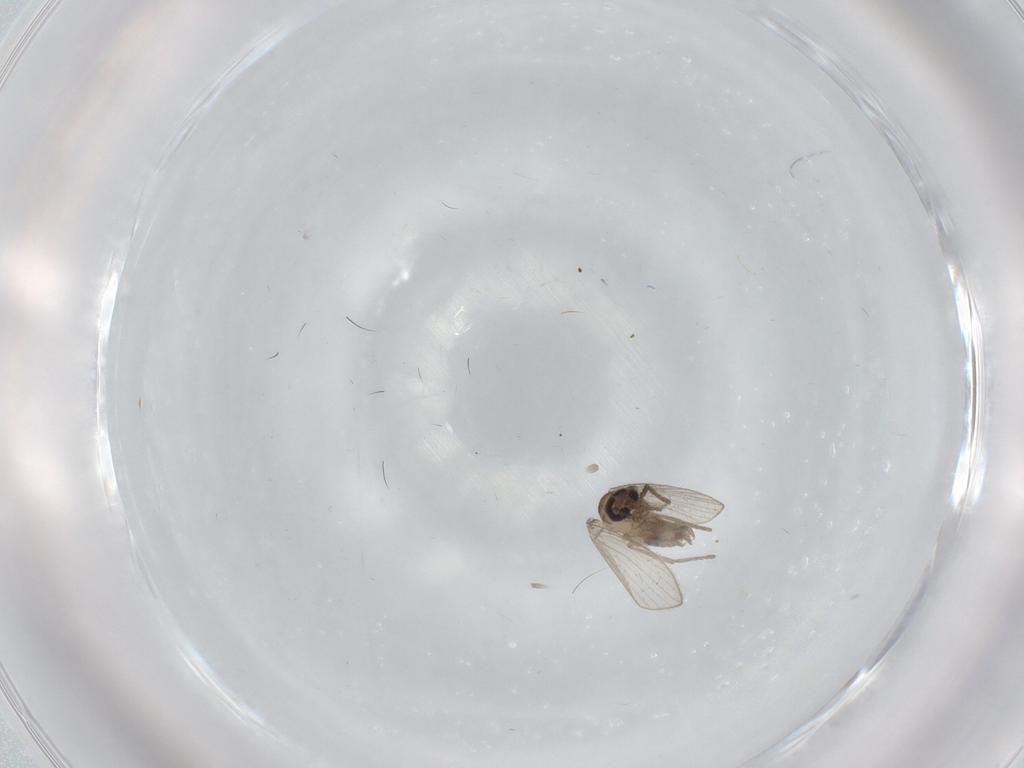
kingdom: Animalia
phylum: Arthropoda
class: Insecta
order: Diptera
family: Psychodidae
